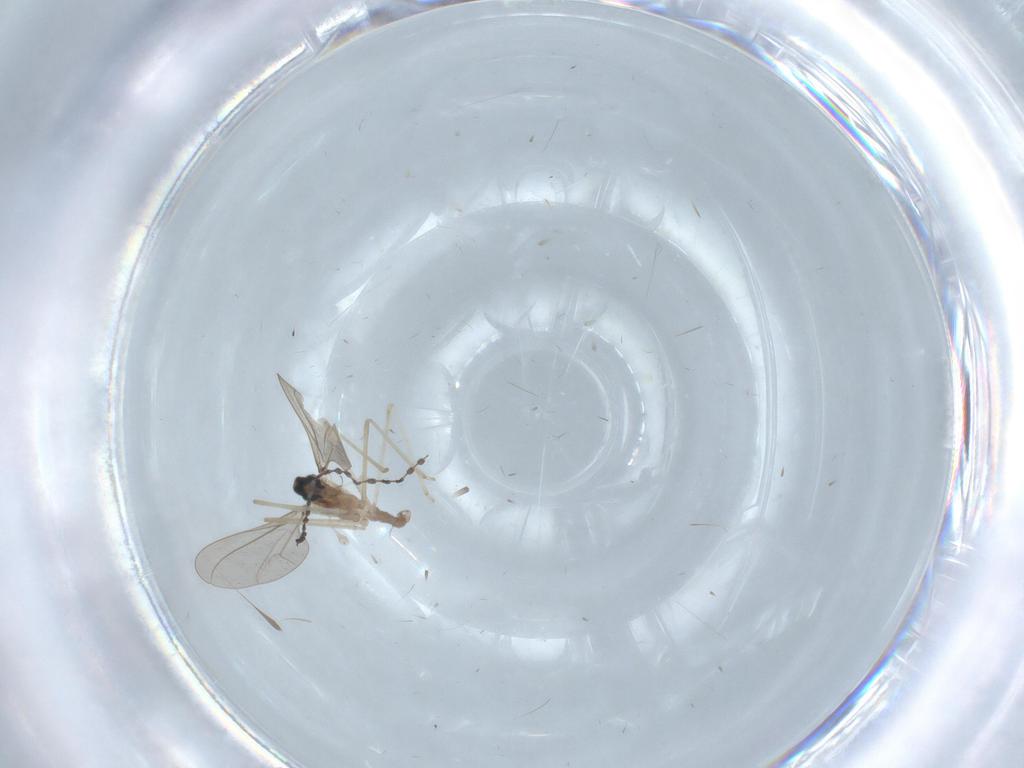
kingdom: Animalia
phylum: Arthropoda
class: Insecta
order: Diptera
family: Cecidomyiidae
